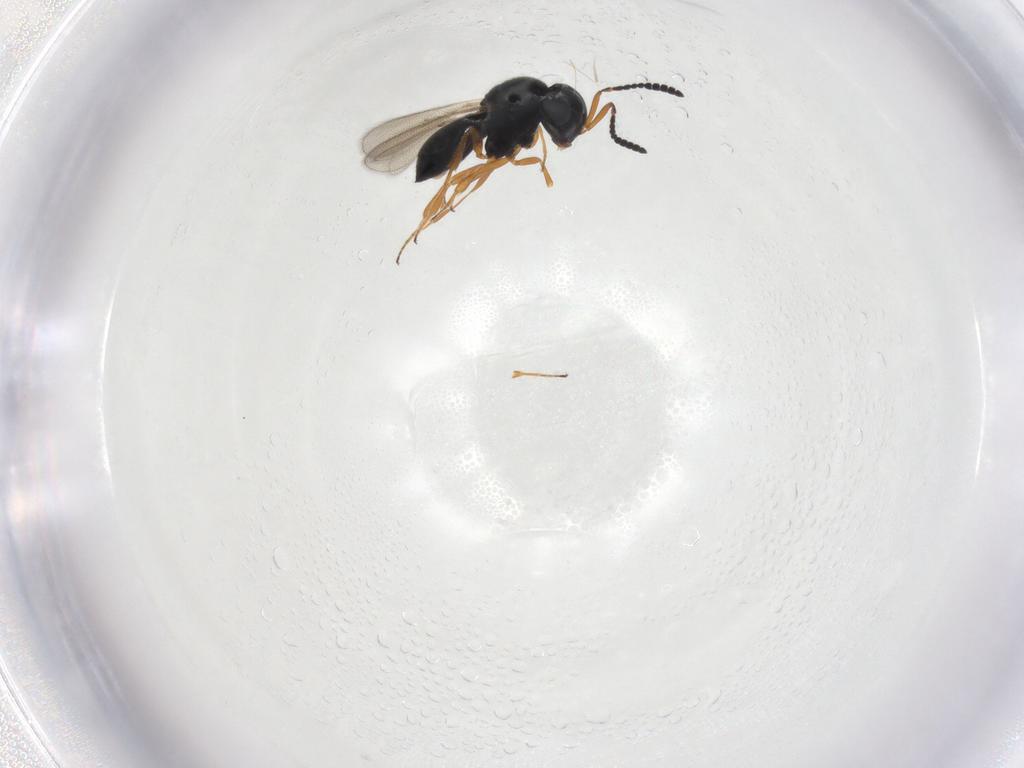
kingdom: Animalia
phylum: Arthropoda
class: Insecta
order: Hymenoptera
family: Scelionidae
